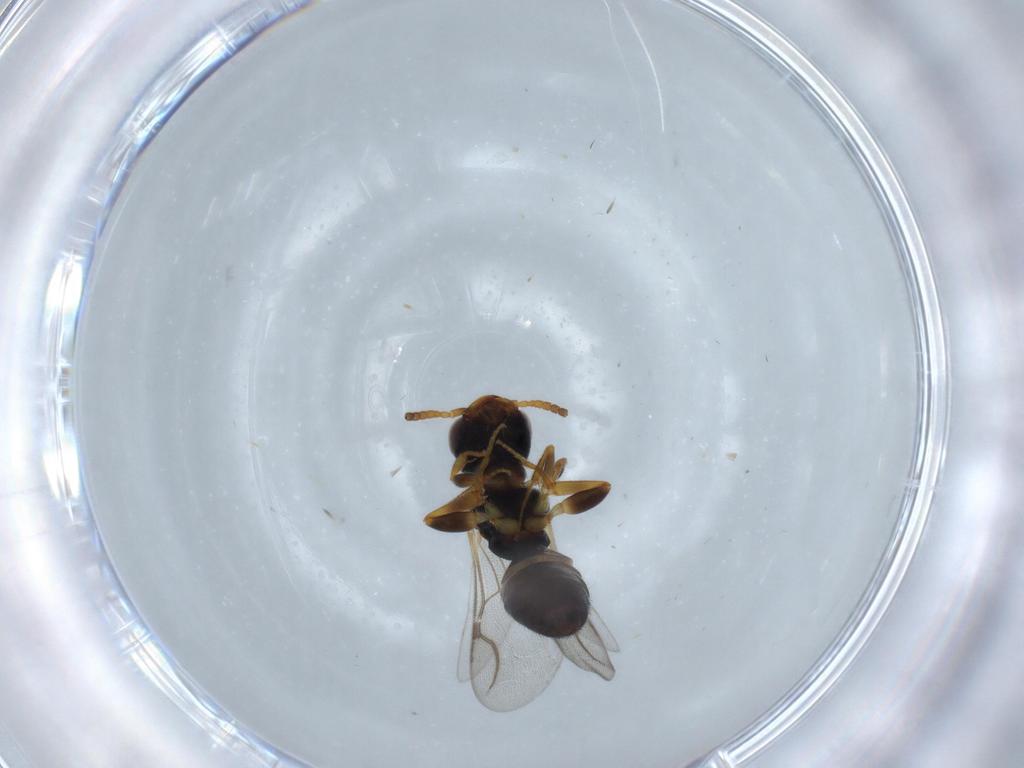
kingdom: Animalia
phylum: Arthropoda
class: Insecta
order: Hymenoptera
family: Bethylidae
